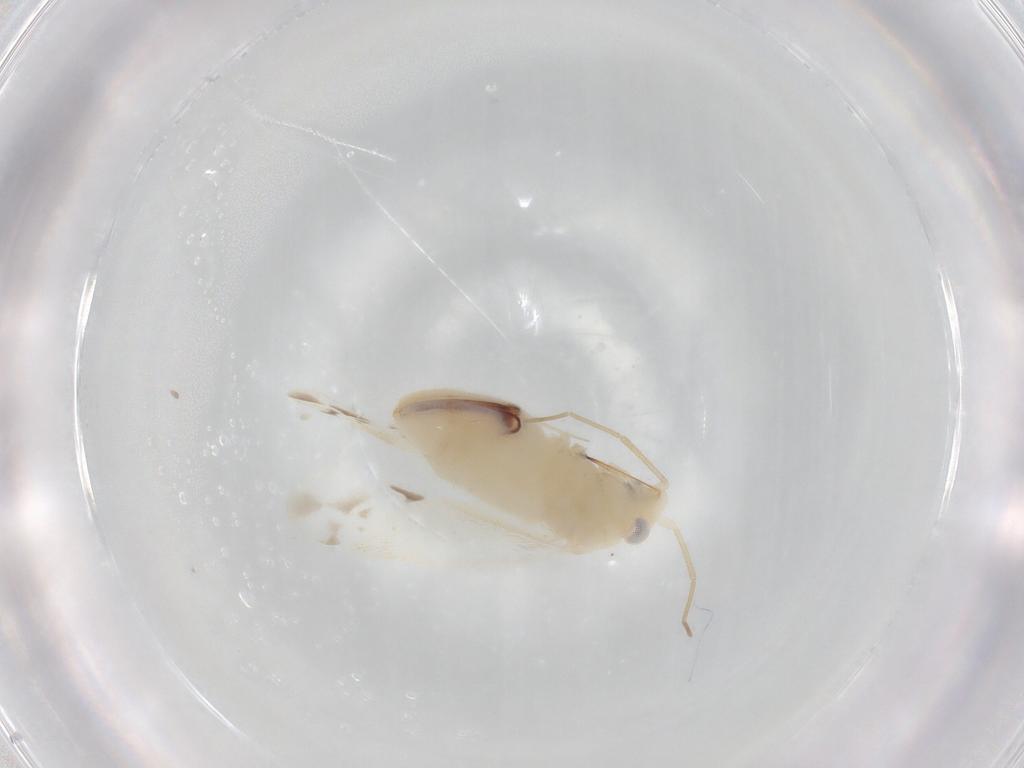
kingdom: Animalia
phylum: Arthropoda
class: Insecta
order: Hemiptera
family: Miridae
